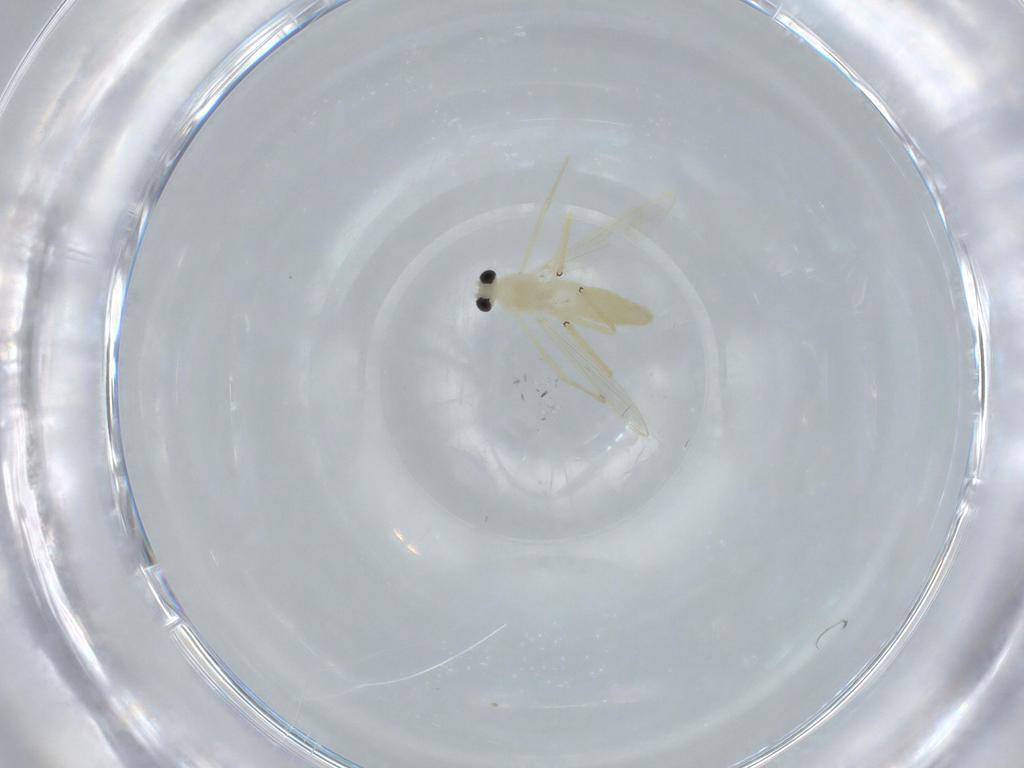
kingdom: Animalia
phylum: Arthropoda
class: Insecta
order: Diptera
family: Chironomidae
